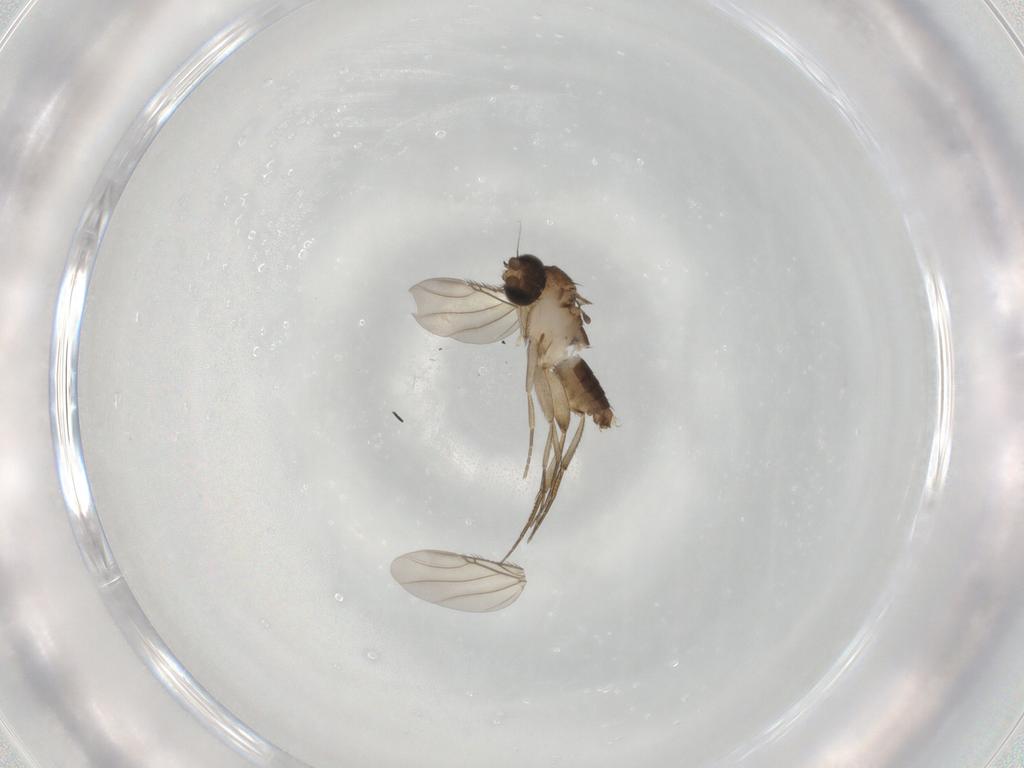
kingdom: Animalia
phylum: Arthropoda
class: Insecta
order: Diptera
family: Phoridae
